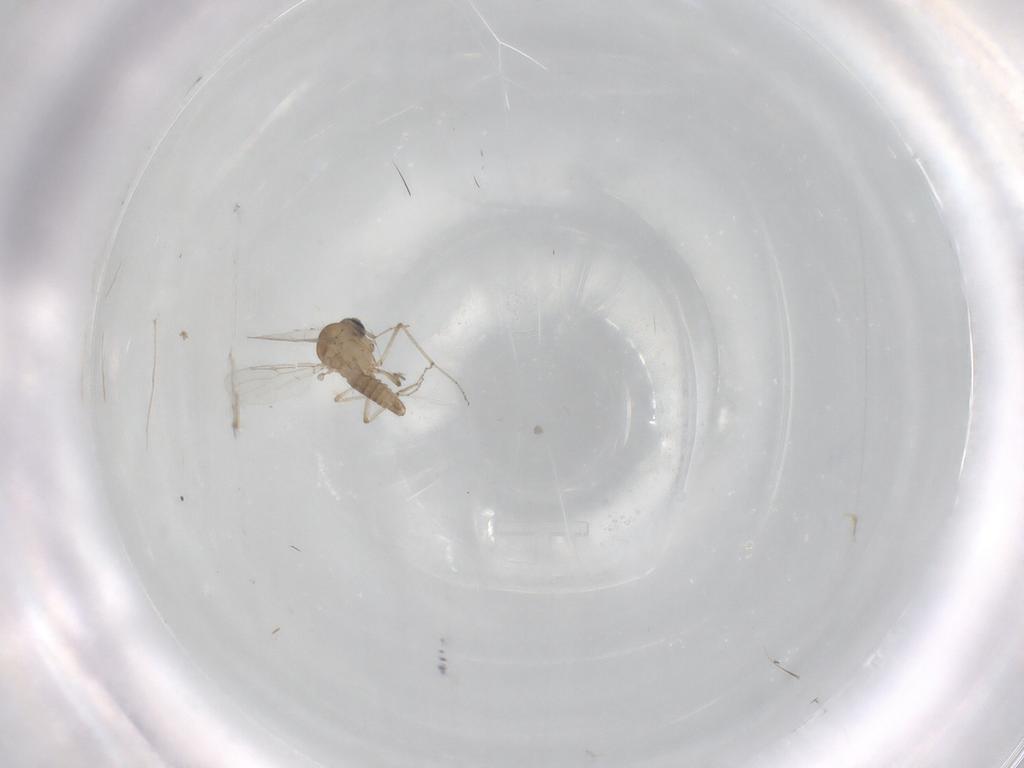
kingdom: Animalia
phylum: Arthropoda
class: Insecta
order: Diptera
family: Ceratopogonidae
